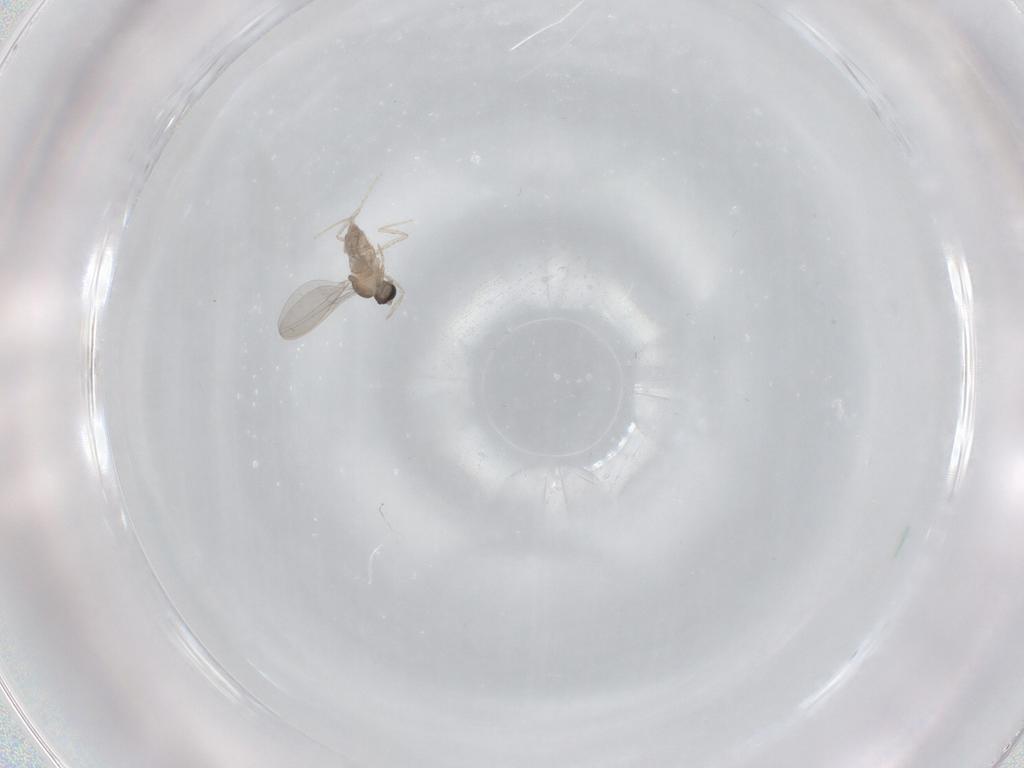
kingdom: Animalia
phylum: Arthropoda
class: Insecta
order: Diptera
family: Cecidomyiidae
